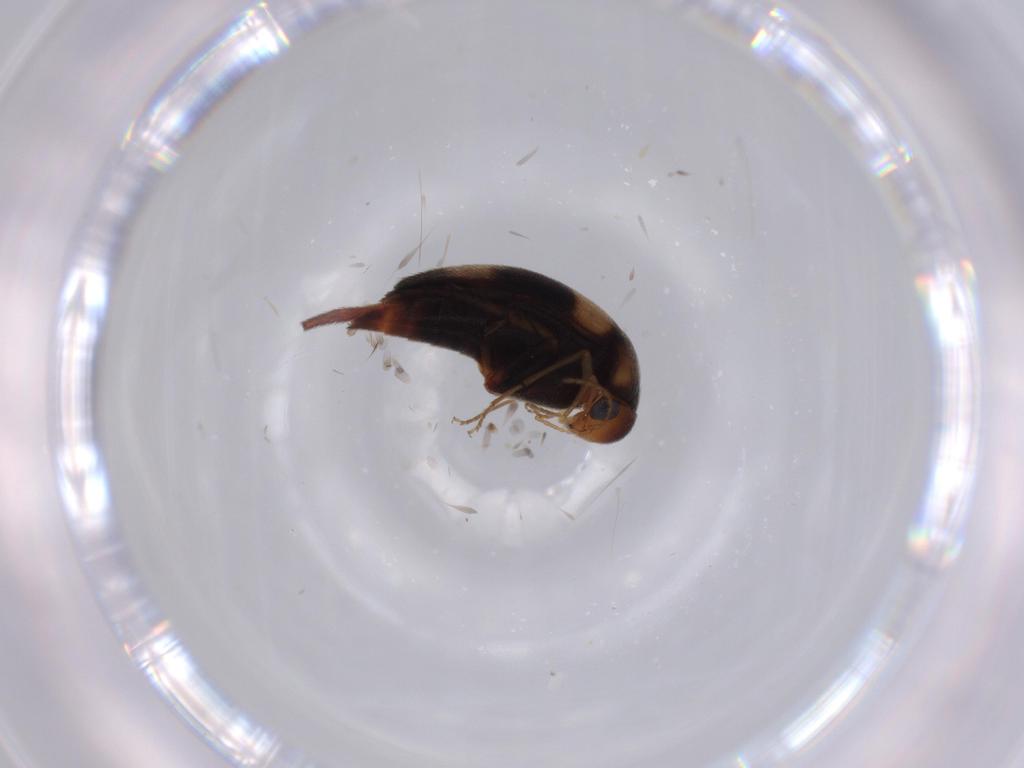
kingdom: Animalia
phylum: Arthropoda
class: Insecta
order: Coleoptera
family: Mordellidae
